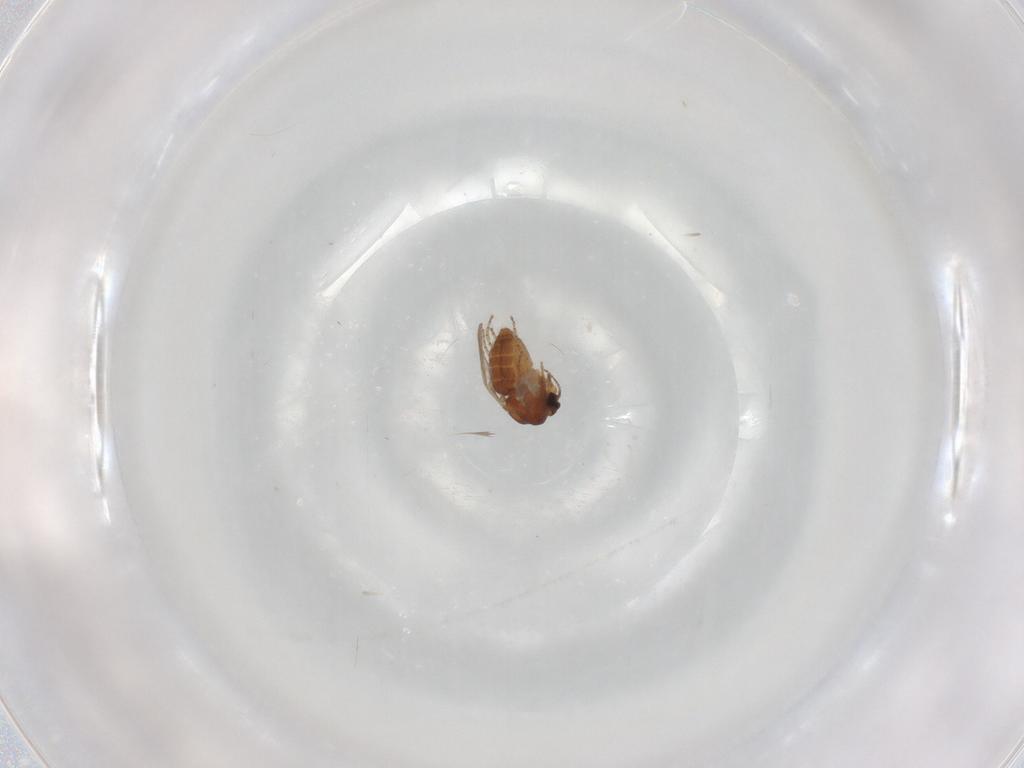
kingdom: Animalia
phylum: Arthropoda
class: Insecta
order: Diptera
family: Ceratopogonidae
